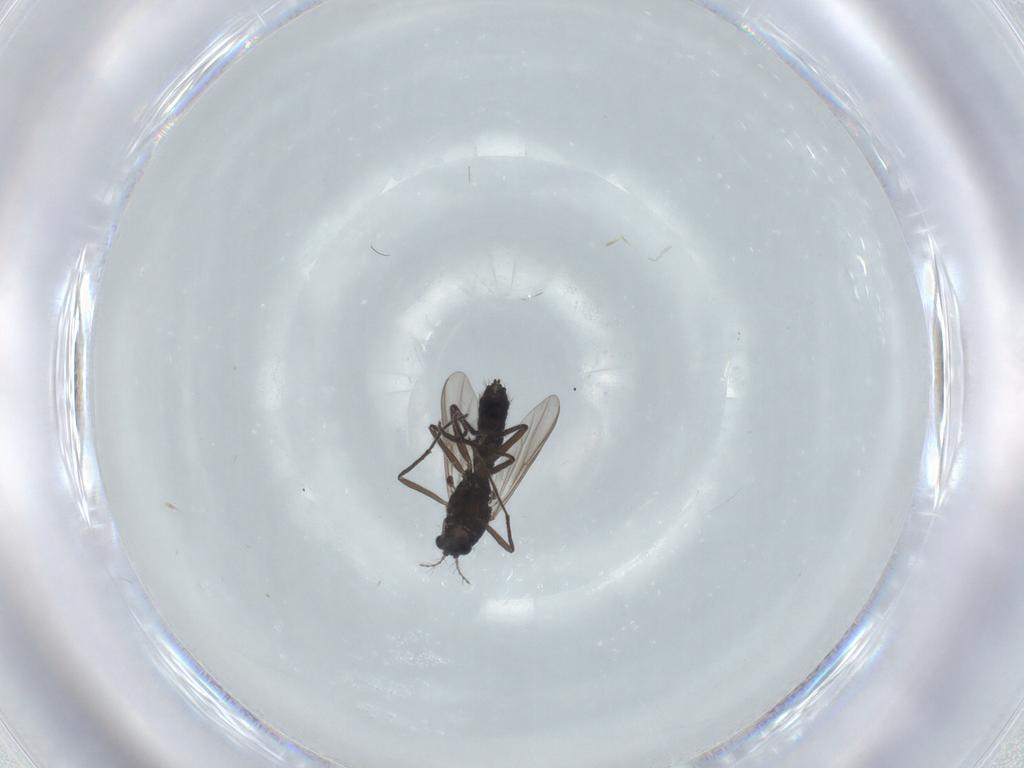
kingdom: Animalia
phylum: Arthropoda
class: Insecta
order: Diptera
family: Chironomidae
